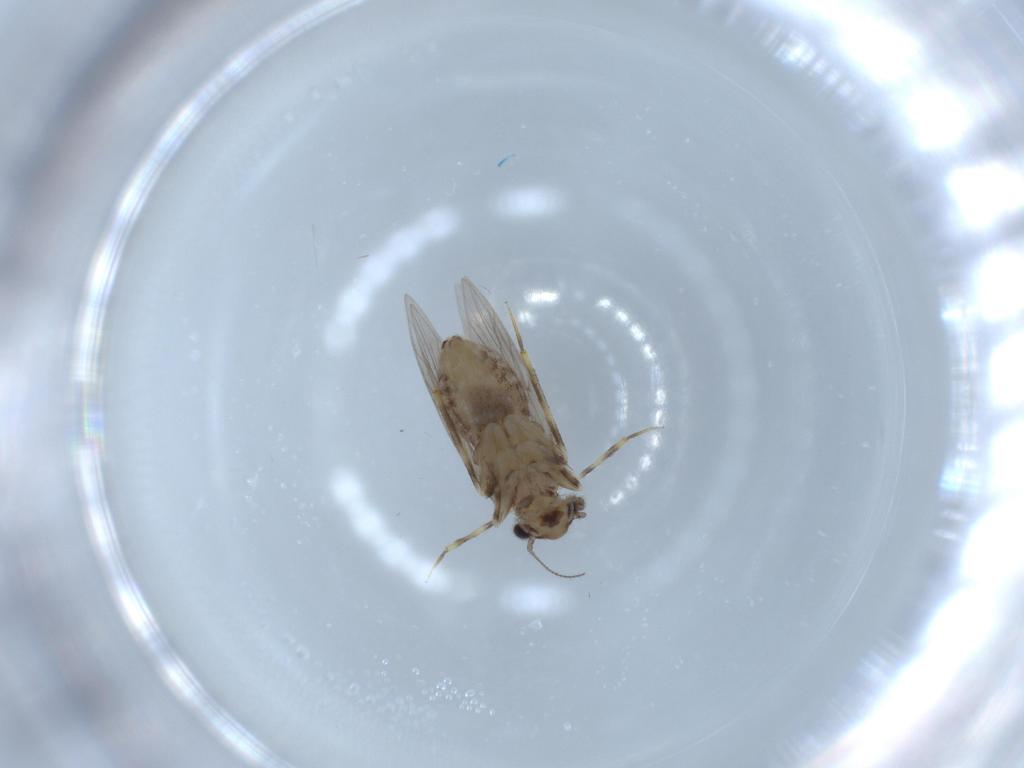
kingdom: Animalia
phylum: Arthropoda
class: Insecta
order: Psocodea
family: Lepidopsocidae
